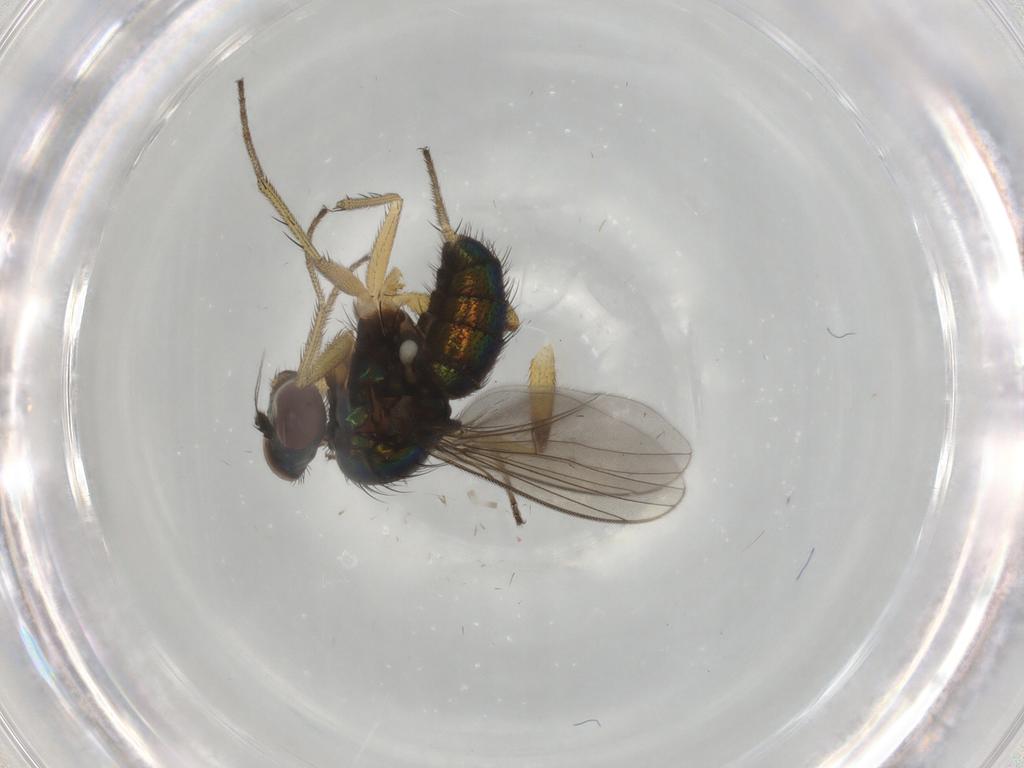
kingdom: Animalia
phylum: Arthropoda
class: Insecta
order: Diptera
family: Dolichopodidae
